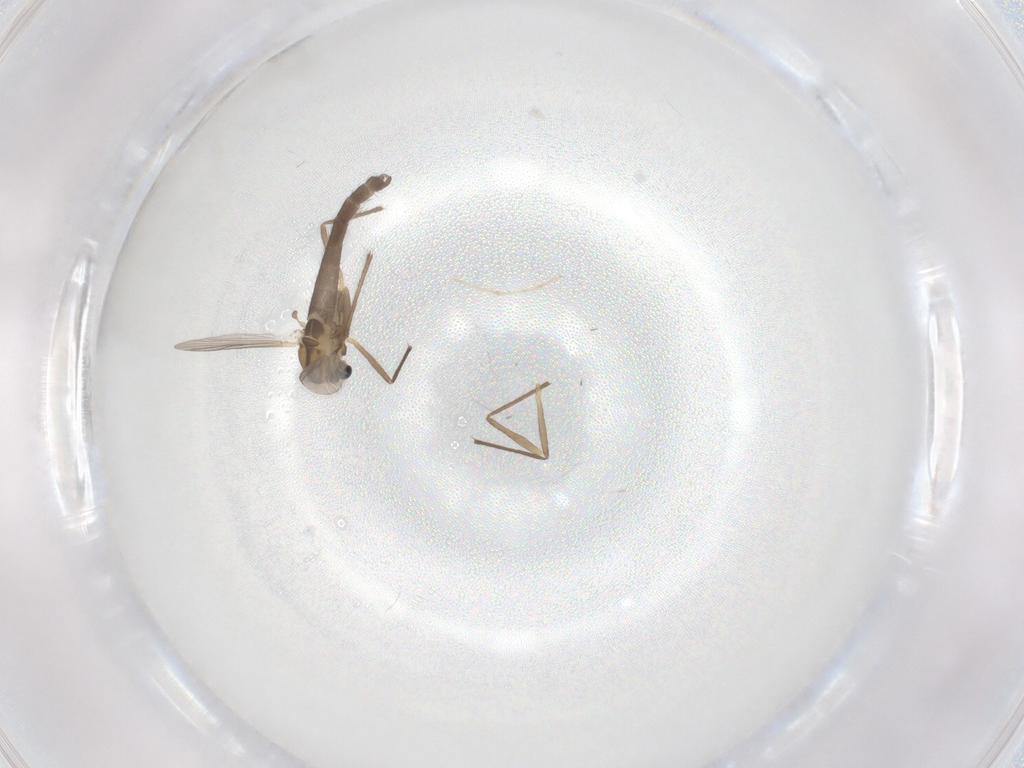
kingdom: Animalia
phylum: Arthropoda
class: Insecta
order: Diptera
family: Chironomidae
